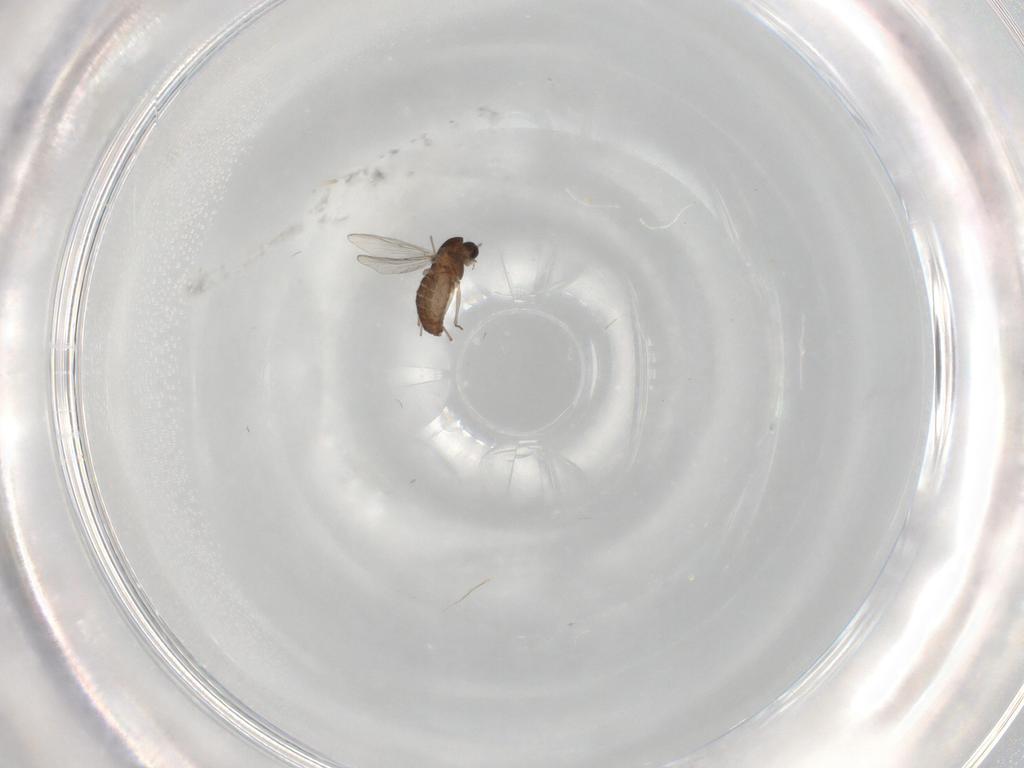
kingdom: Animalia
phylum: Arthropoda
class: Insecta
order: Diptera
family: Chironomidae
